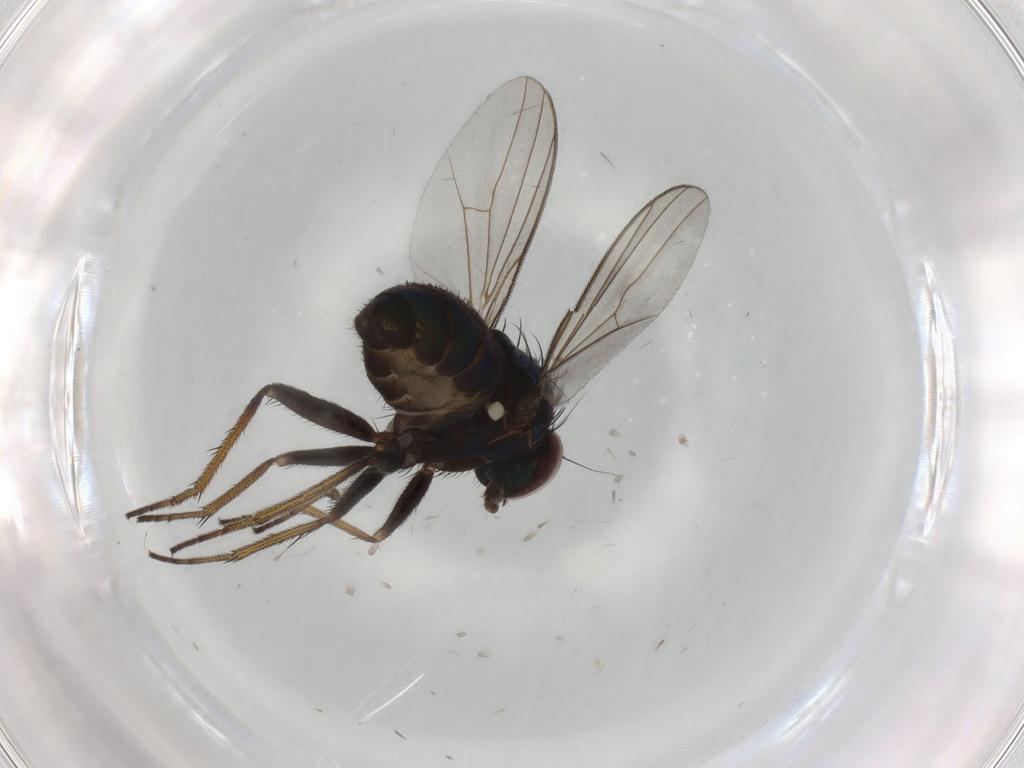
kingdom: Animalia
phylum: Arthropoda
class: Insecta
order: Diptera
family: Dolichopodidae
